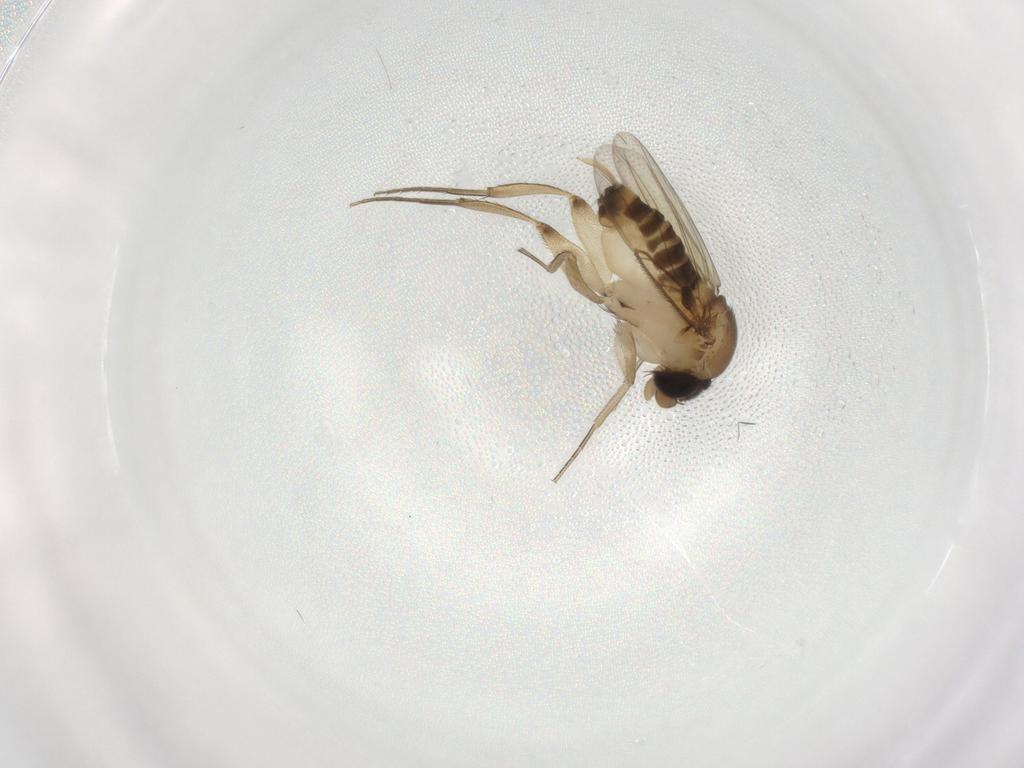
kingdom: Animalia
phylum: Arthropoda
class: Insecta
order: Diptera
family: Phoridae
